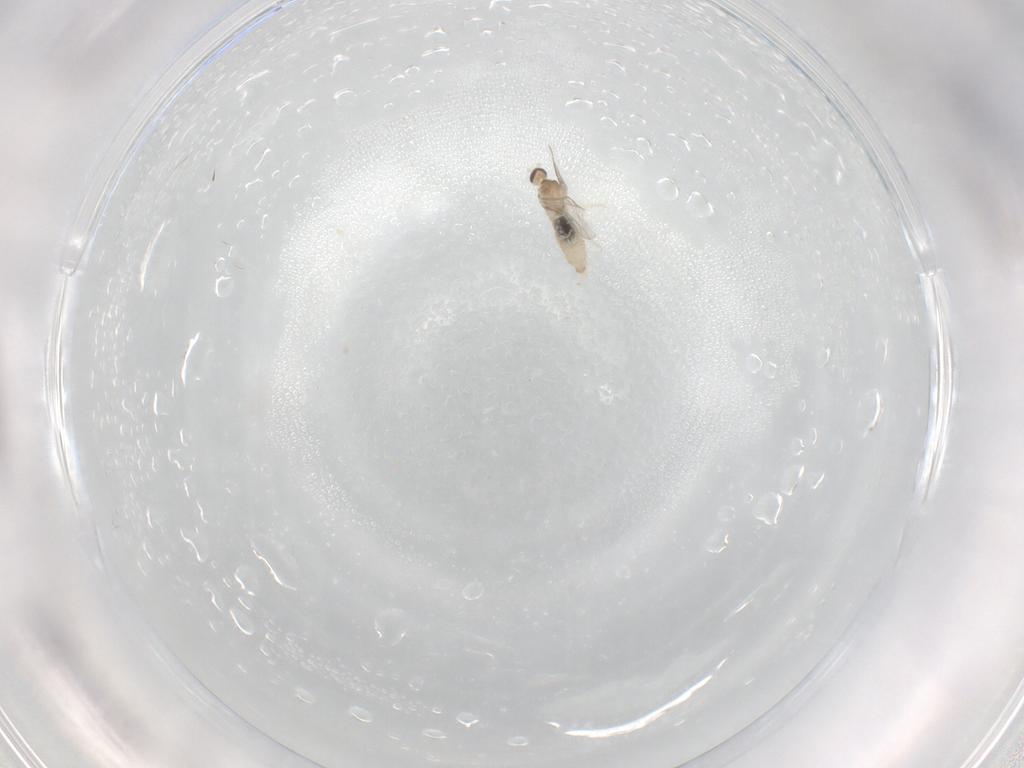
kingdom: Animalia
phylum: Arthropoda
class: Insecta
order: Diptera
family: Cecidomyiidae
